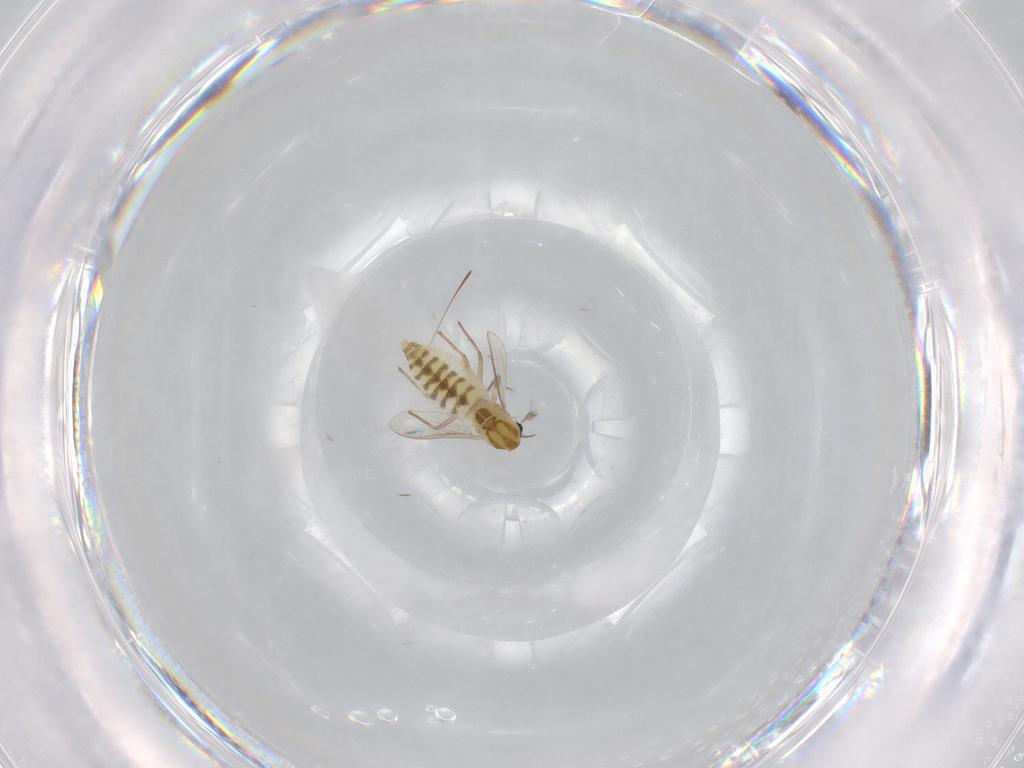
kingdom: Animalia
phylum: Arthropoda
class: Insecta
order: Diptera
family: Chironomidae
